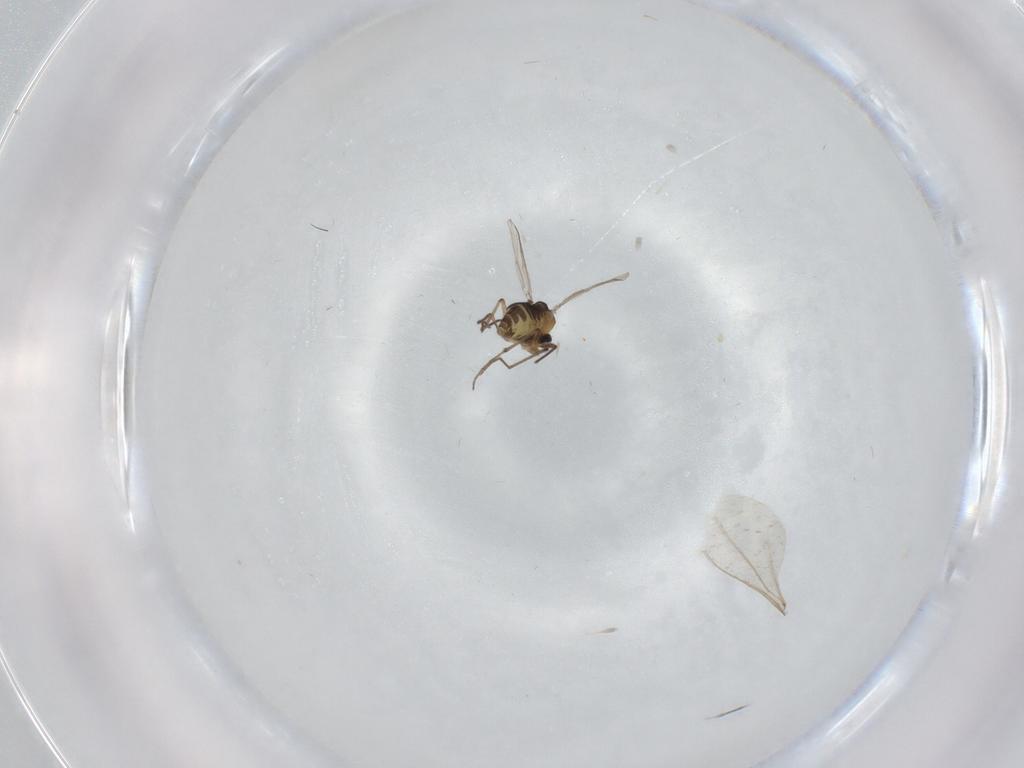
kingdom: Animalia
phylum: Arthropoda
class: Insecta
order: Diptera
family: Chironomidae
